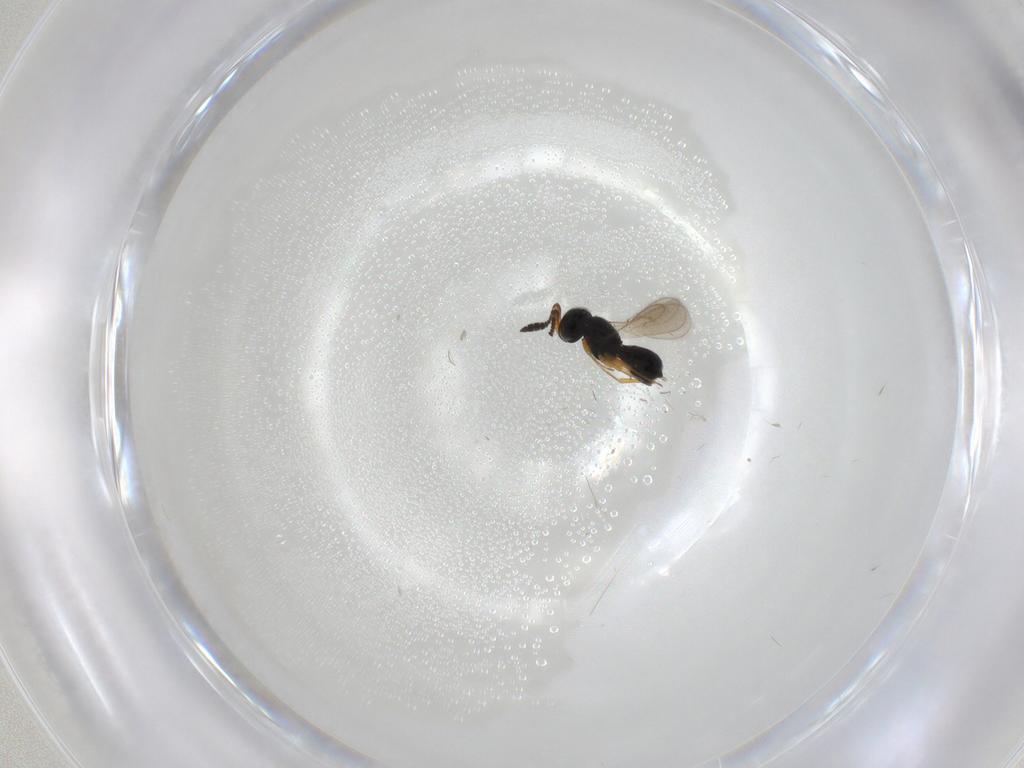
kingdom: Animalia
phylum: Arthropoda
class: Insecta
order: Hymenoptera
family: Scelionidae
